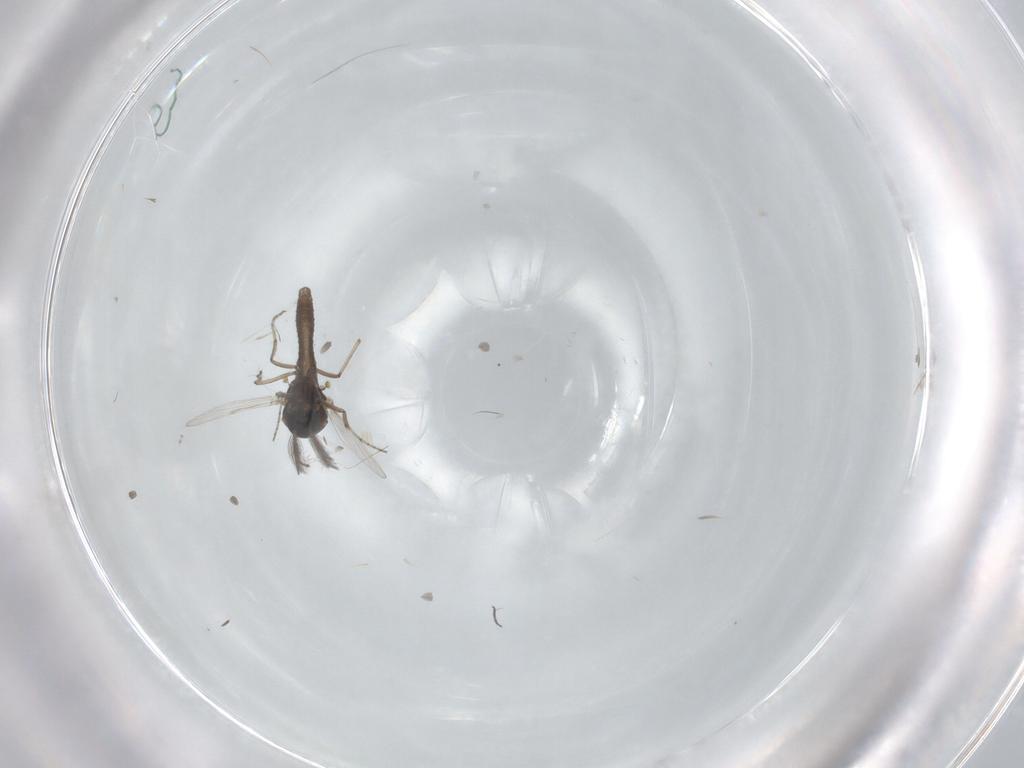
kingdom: Animalia
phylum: Arthropoda
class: Insecta
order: Diptera
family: Ceratopogonidae
